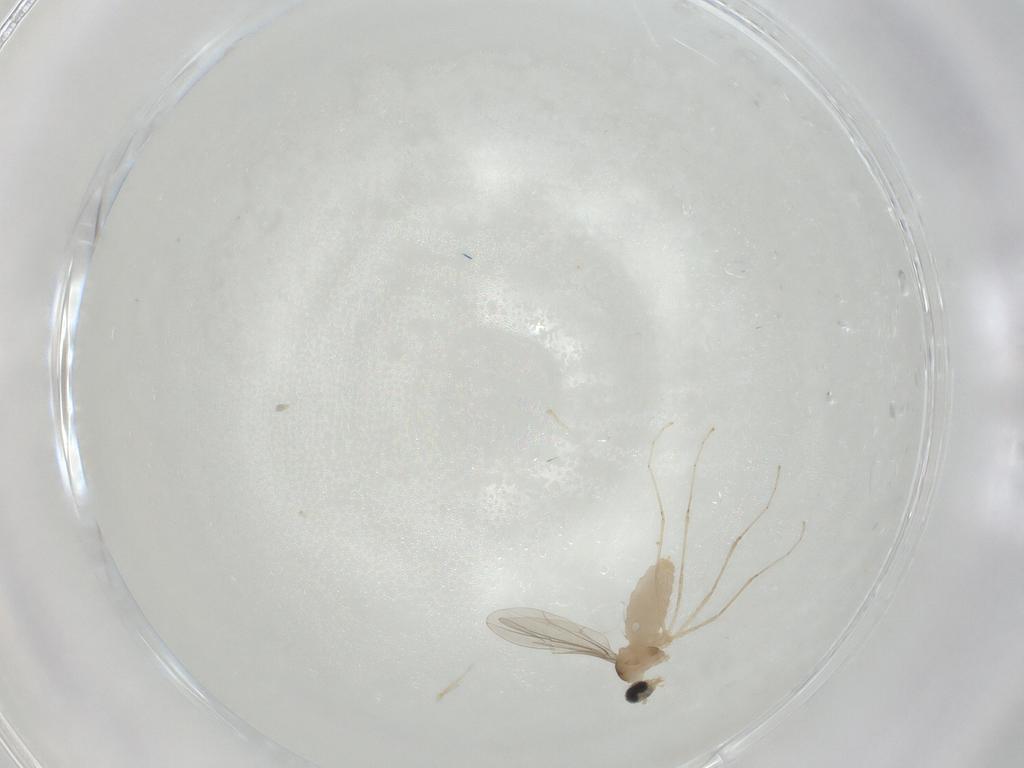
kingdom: Animalia
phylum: Arthropoda
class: Insecta
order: Diptera
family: Cecidomyiidae
